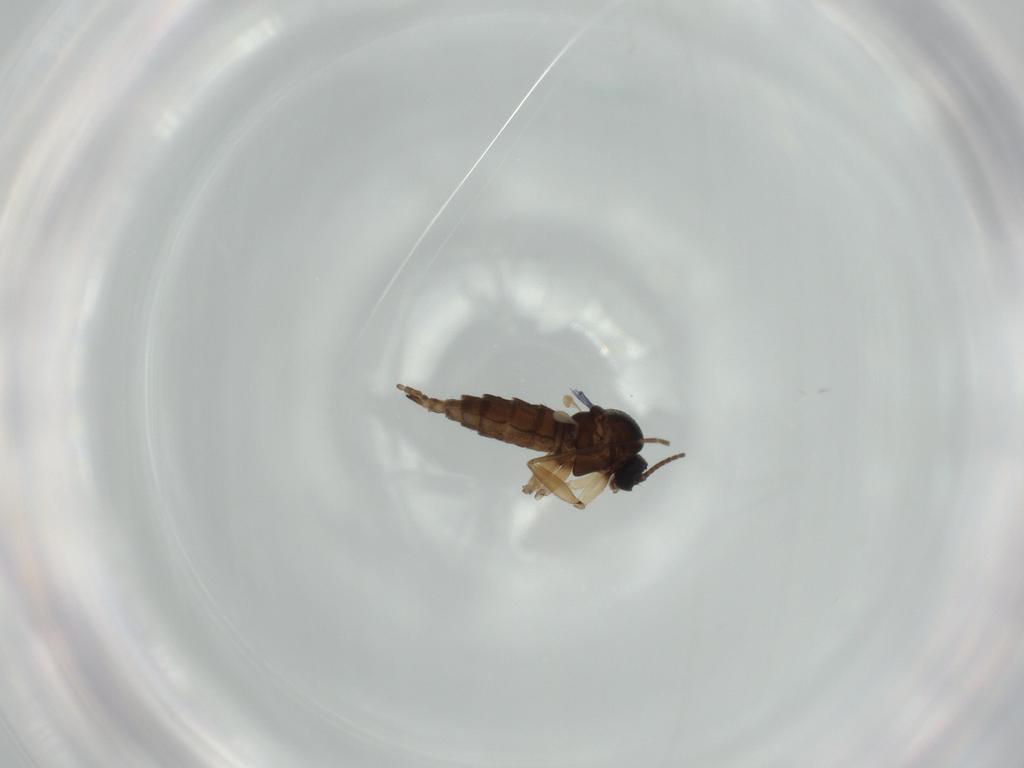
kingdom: Animalia
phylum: Arthropoda
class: Insecta
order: Diptera
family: Sciaridae
